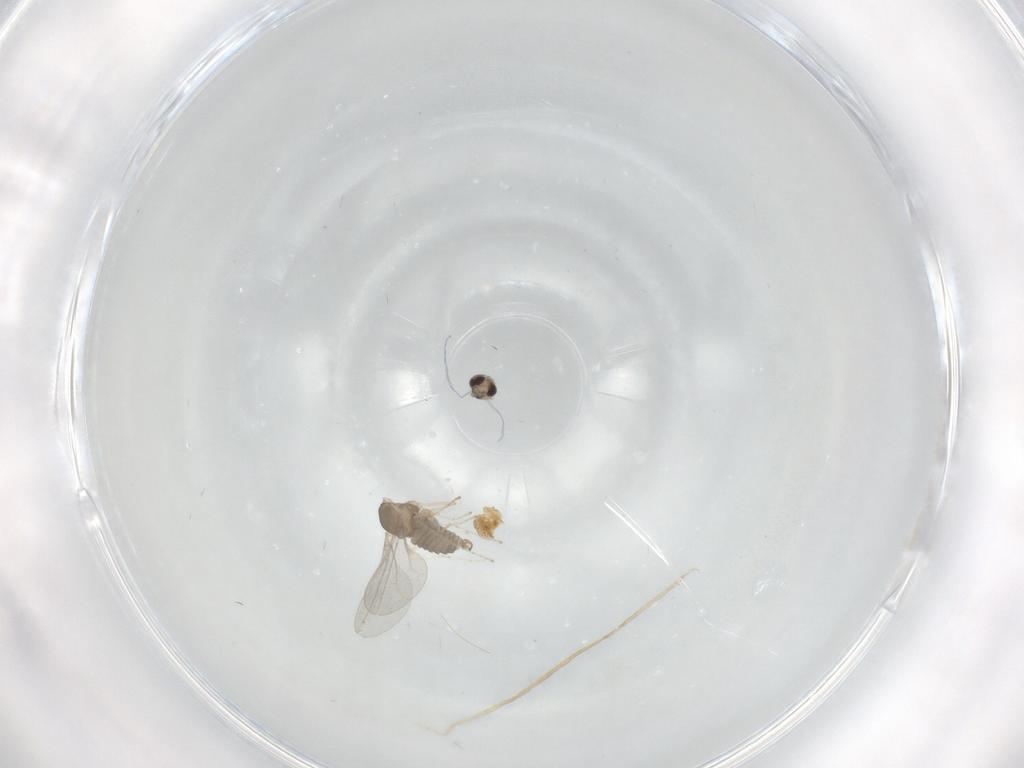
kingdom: Animalia
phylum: Arthropoda
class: Insecta
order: Diptera
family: Cecidomyiidae
